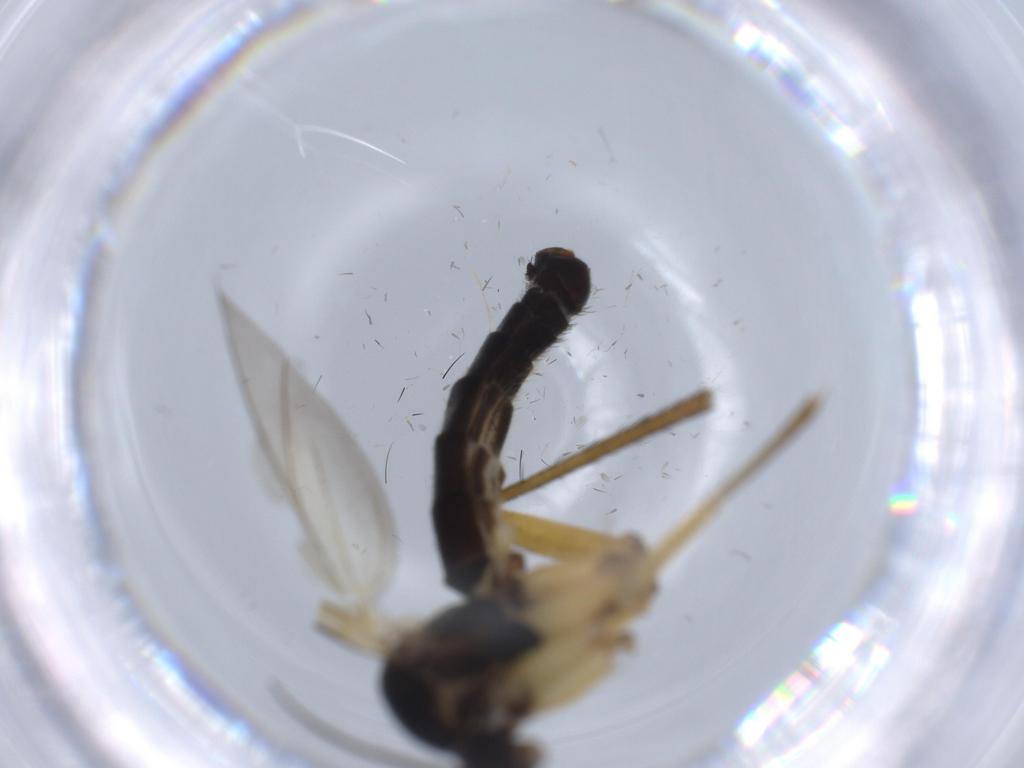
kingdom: Animalia
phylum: Arthropoda
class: Insecta
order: Diptera
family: Cecidomyiidae
